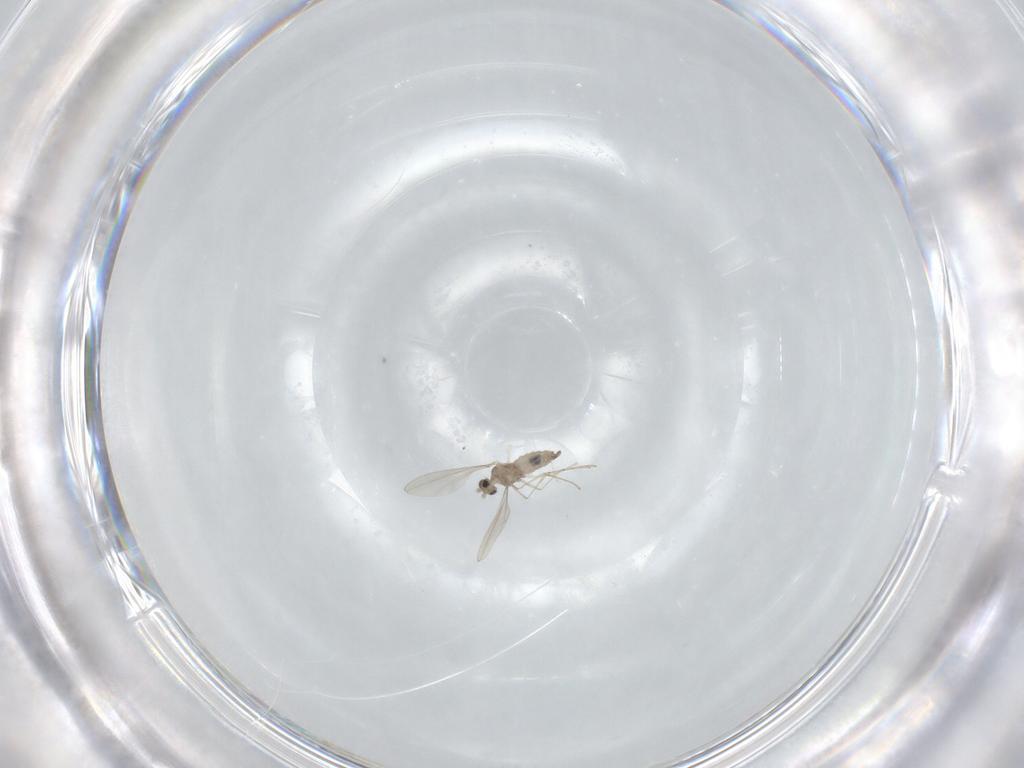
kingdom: Animalia
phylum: Arthropoda
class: Insecta
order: Diptera
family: Cecidomyiidae
